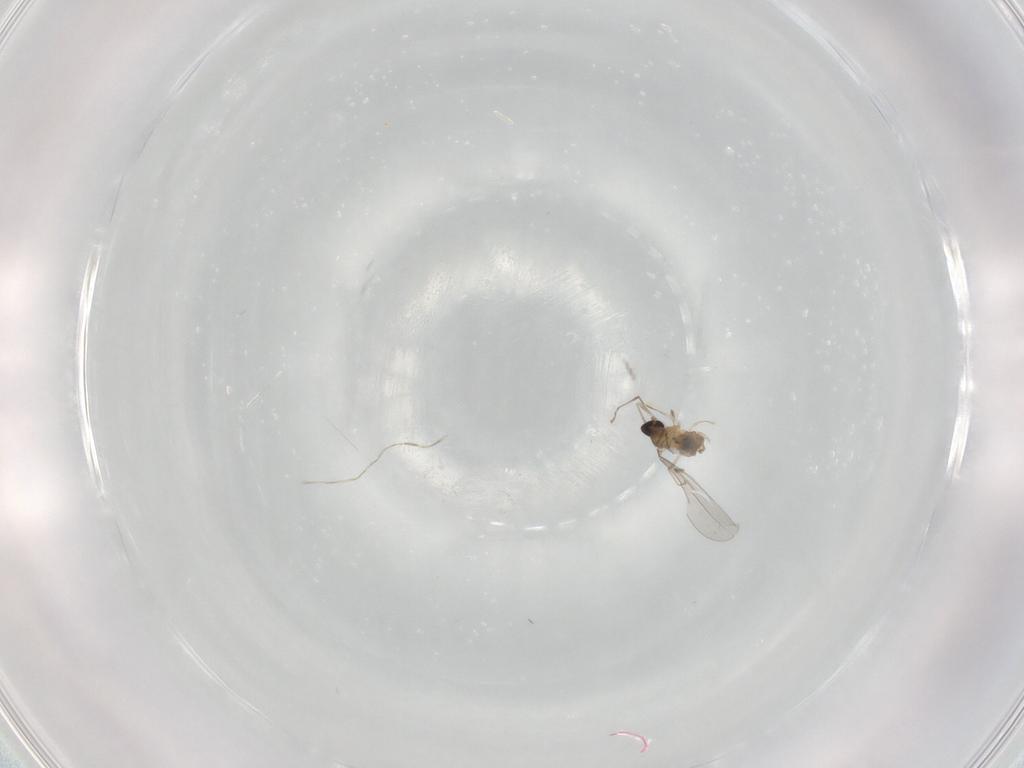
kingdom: Animalia
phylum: Arthropoda
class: Insecta
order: Diptera
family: Cecidomyiidae
